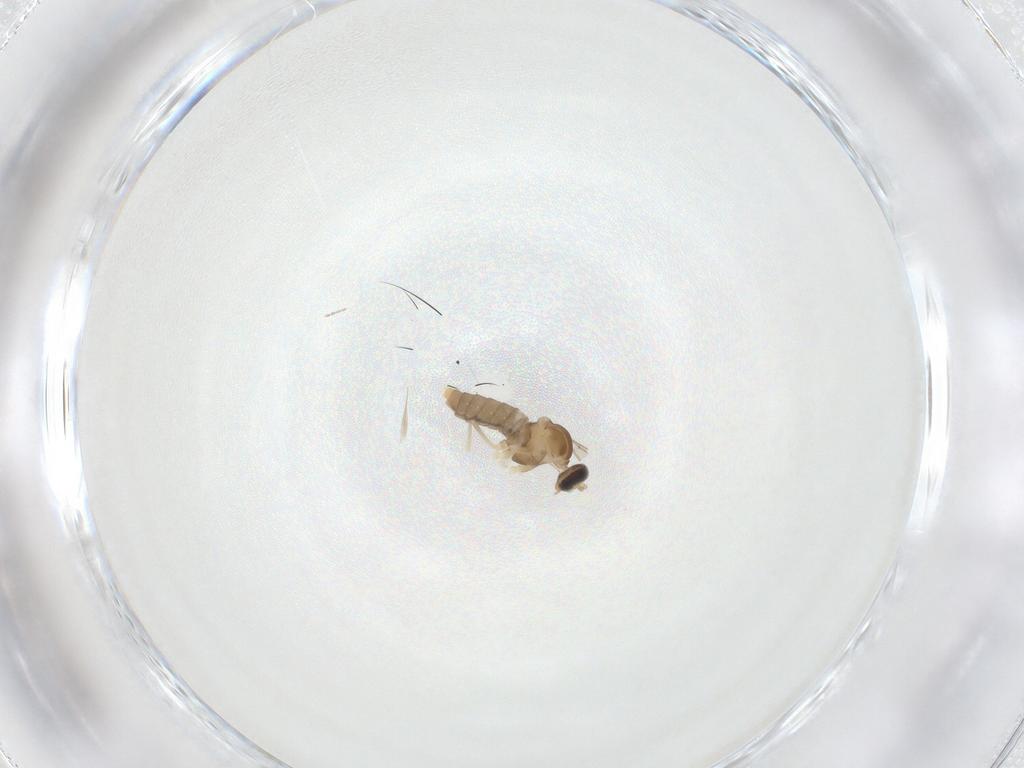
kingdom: Animalia
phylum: Arthropoda
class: Insecta
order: Diptera
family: Cecidomyiidae
